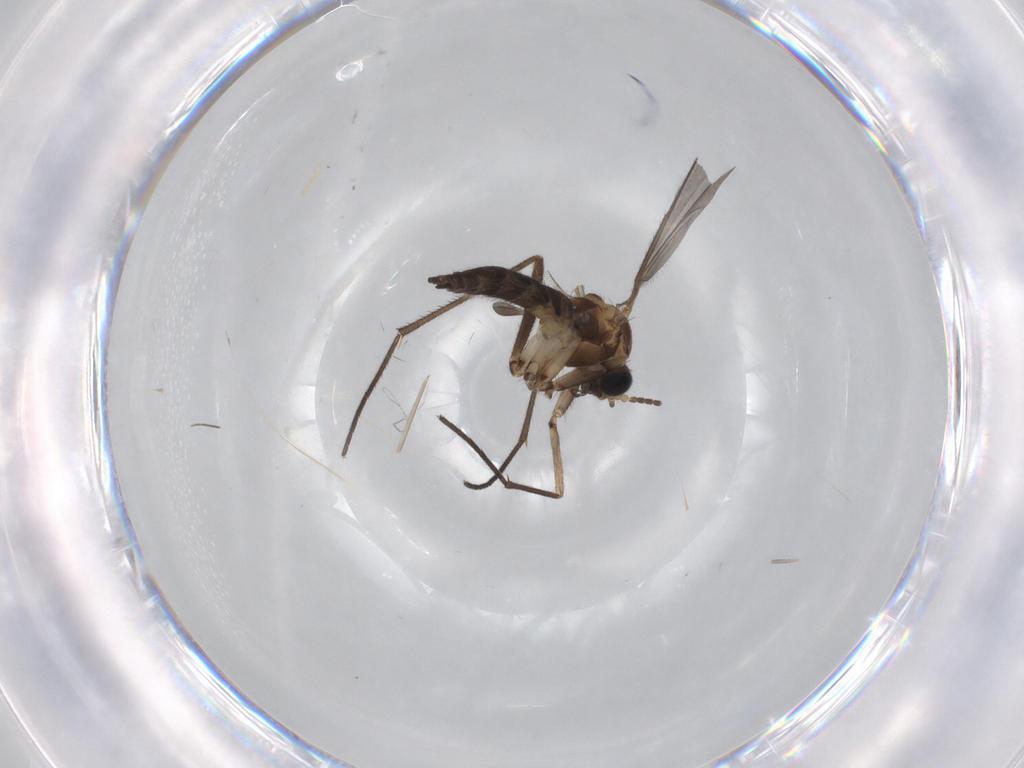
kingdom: Animalia
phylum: Arthropoda
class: Insecta
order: Diptera
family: Sciaridae
